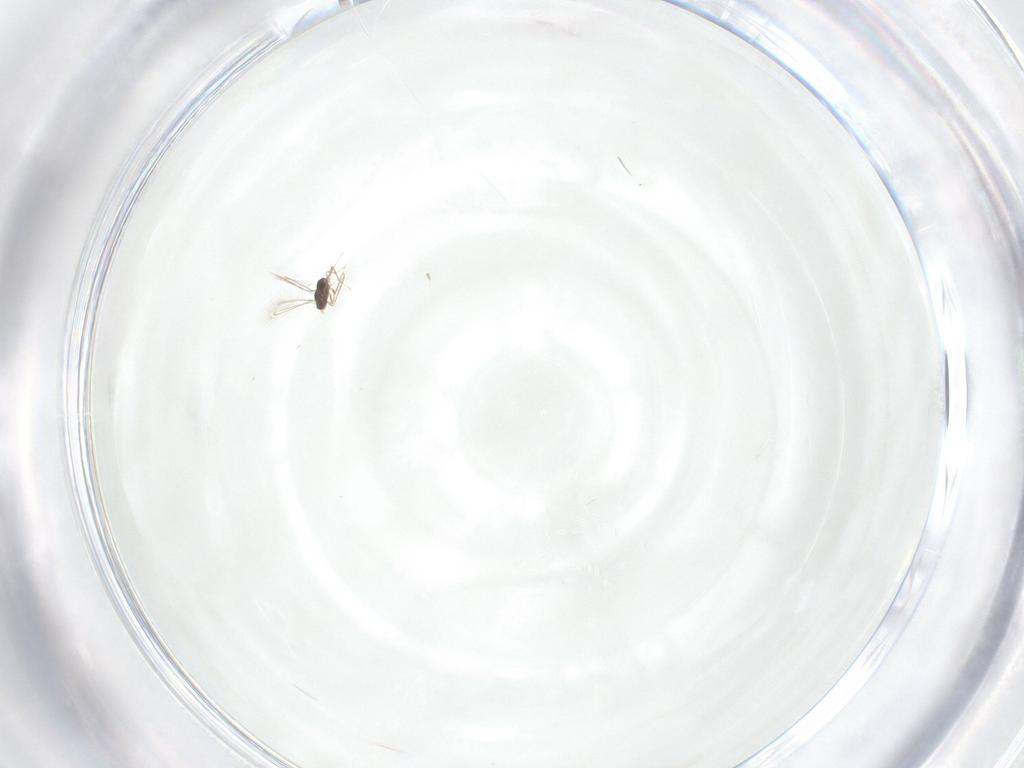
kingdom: Animalia
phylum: Arthropoda
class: Insecta
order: Hymenoptera
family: Mymaridae
